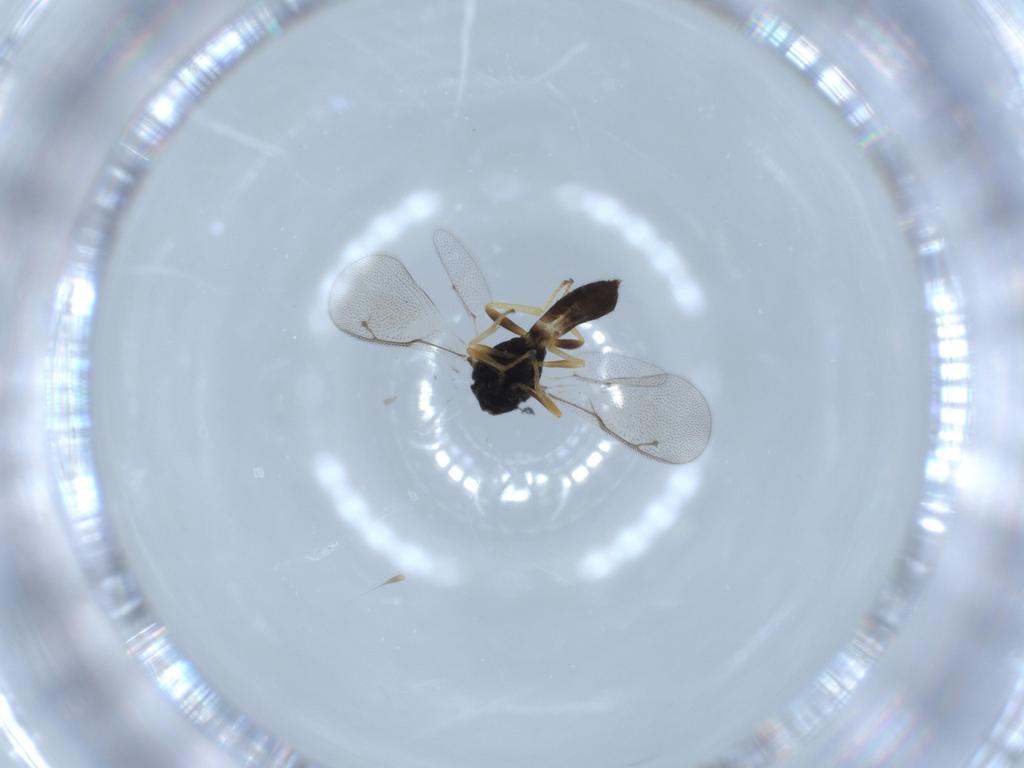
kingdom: Animalia
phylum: Arthropoda
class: Insecta
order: Hymenoptera
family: Pteromalidae
